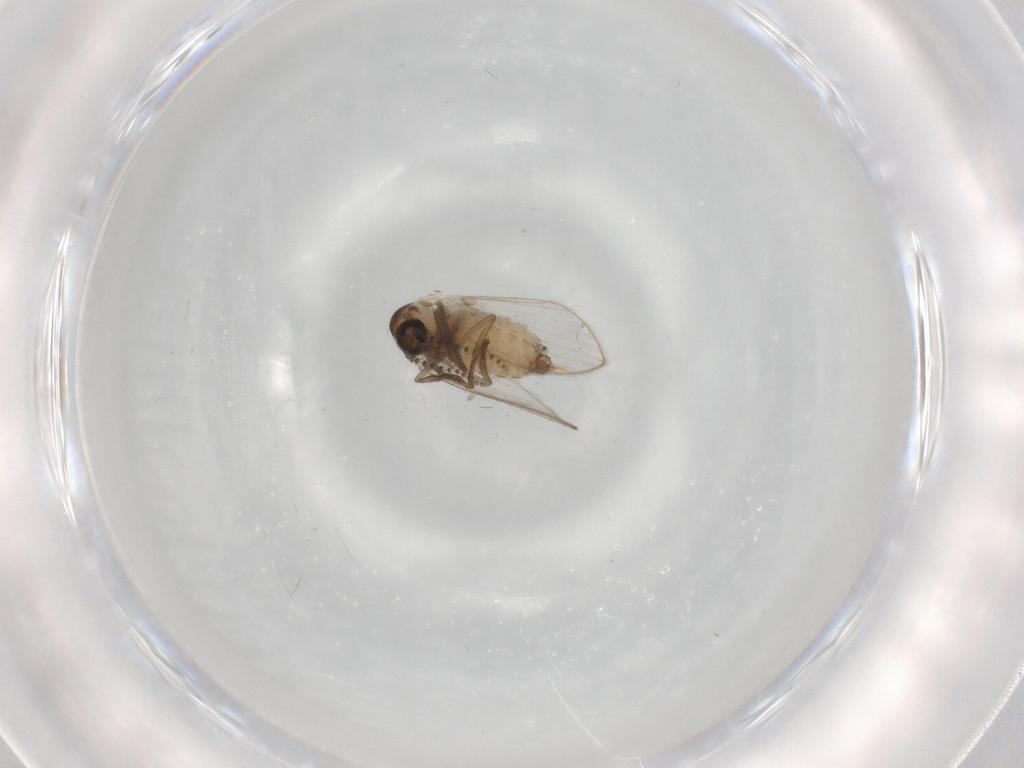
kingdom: Animalia
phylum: Arthropoda
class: Insecta
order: Diptera
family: Psychodidae
